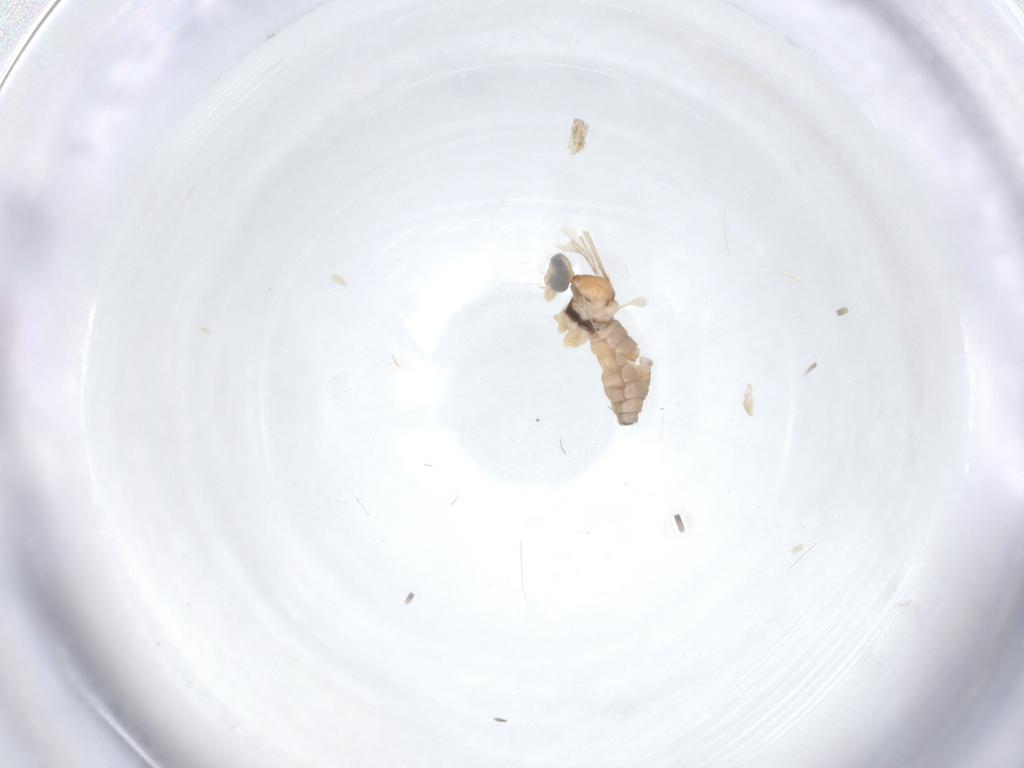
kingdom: Animalia
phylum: Arthropoda
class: Insecta
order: Diptera
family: Cecidomyiidae
